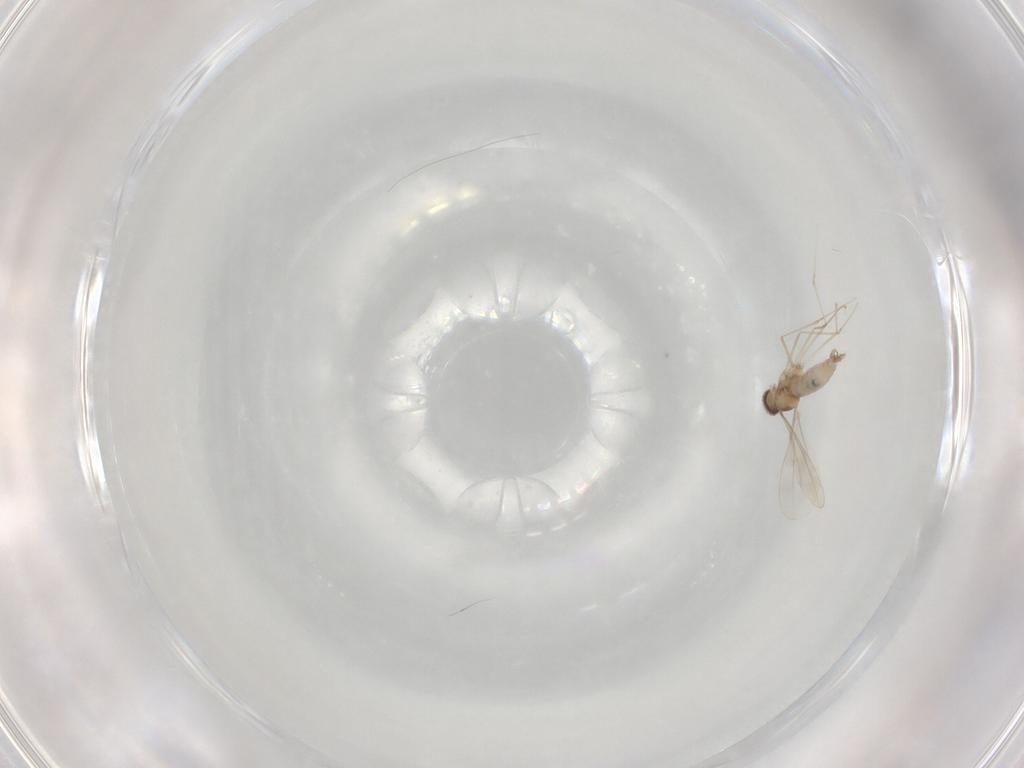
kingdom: Animalia
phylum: Arthropoda
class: Insecta
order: Diptera
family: Cecidomyiidae
